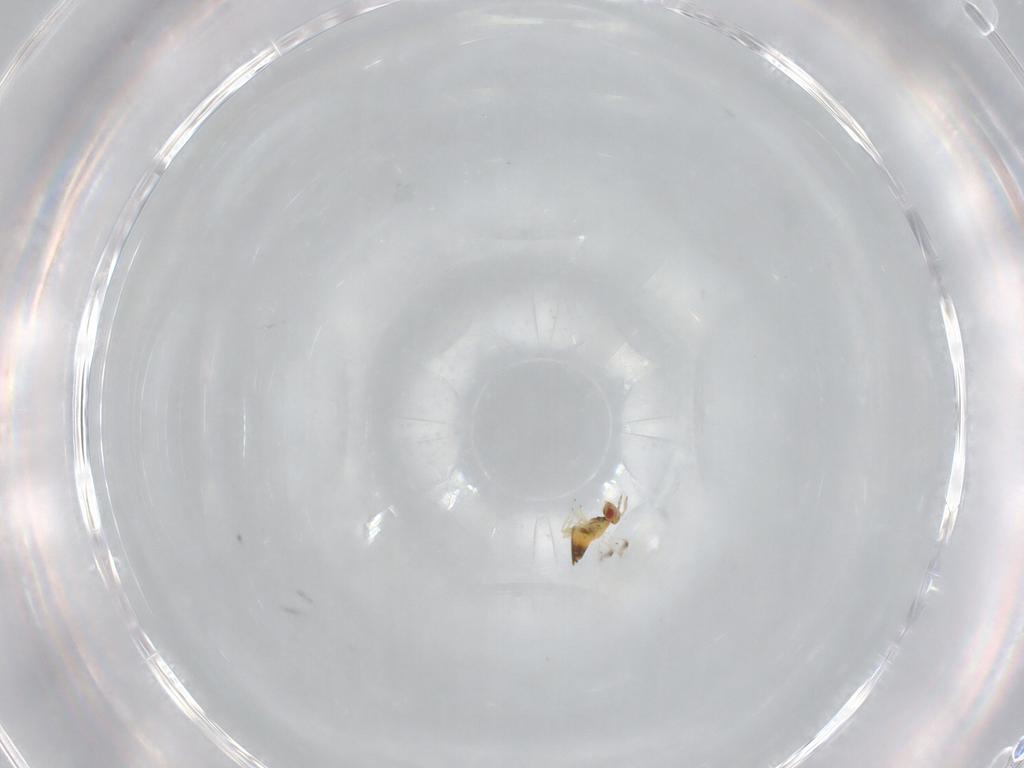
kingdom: Animalia
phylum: Arthropoda
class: Insecta
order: Hymenoptera
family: Trichogrammatidae
